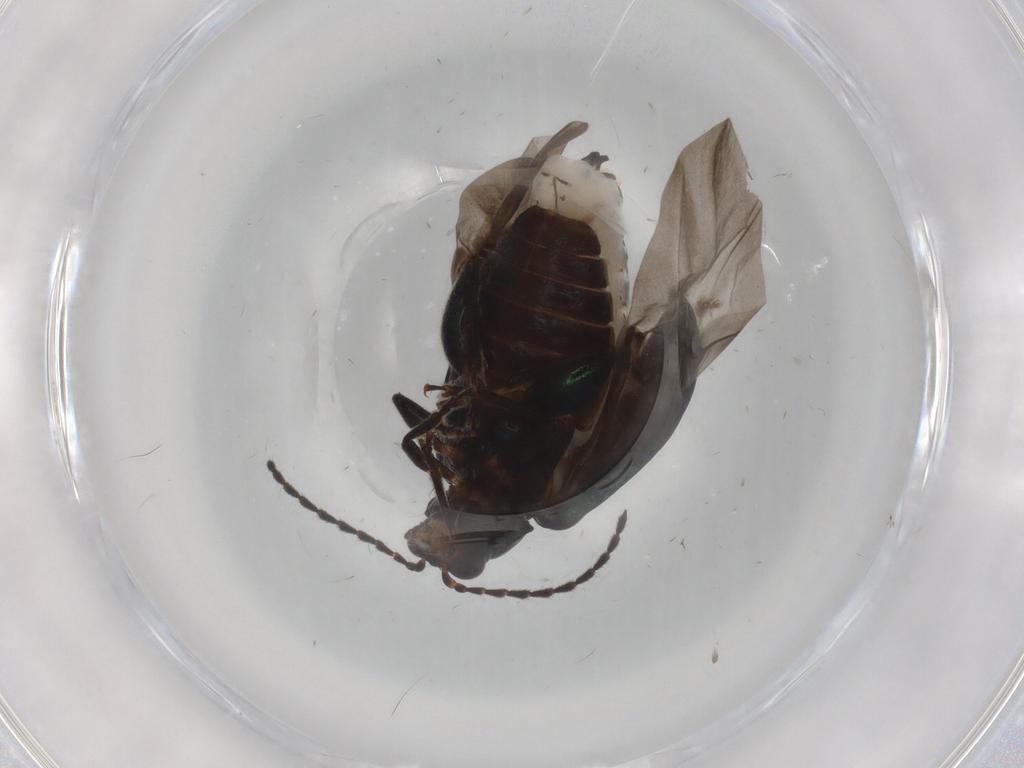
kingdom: Animalia
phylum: Arthropoda
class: Insecta
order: Coleoptera
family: Chrysomelidae
